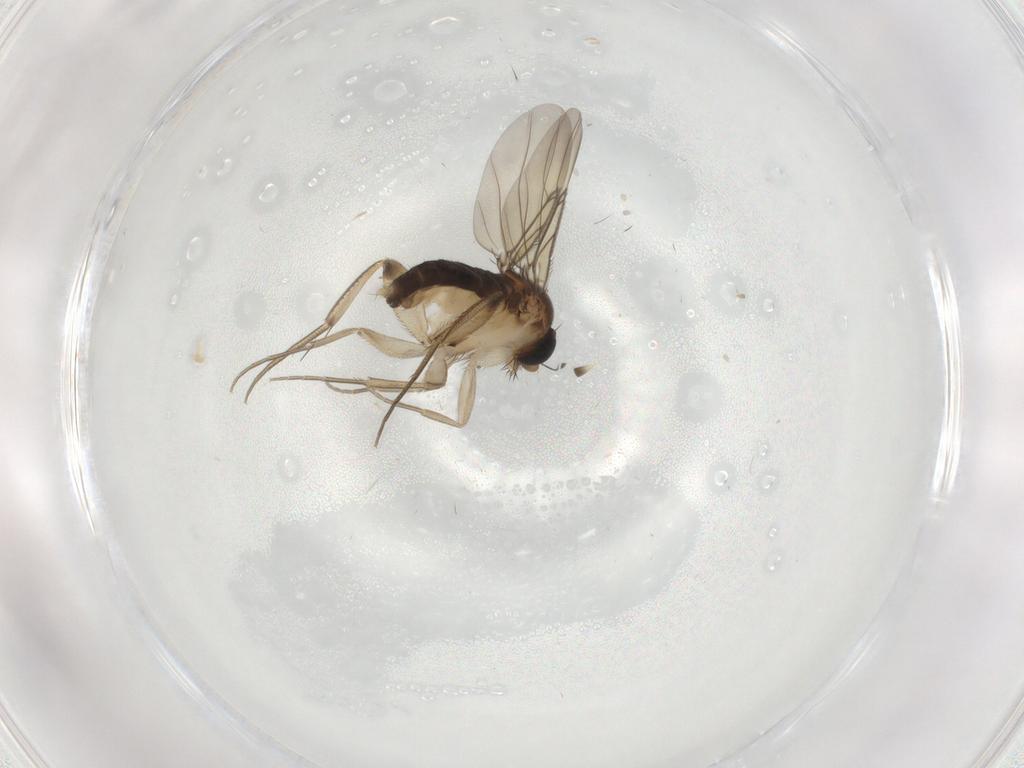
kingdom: Animalia
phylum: Arthropoda
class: Insecta
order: Diptera
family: Phoridae
